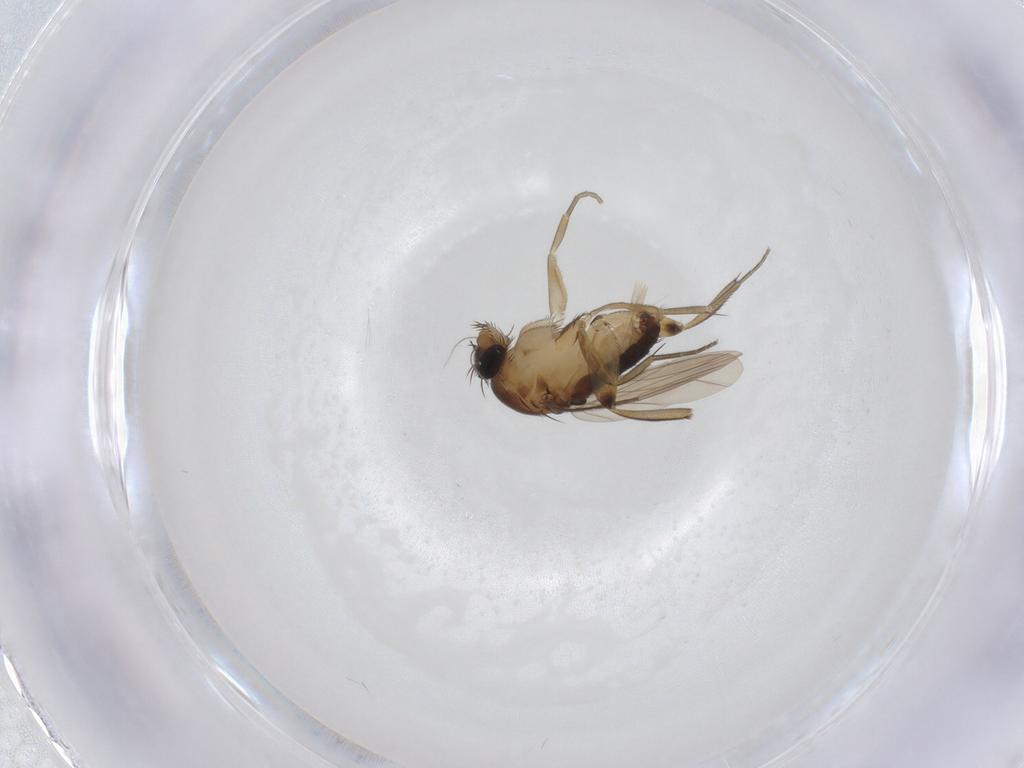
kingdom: Animalia
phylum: Arthropoda
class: Insecta
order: Diptera
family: Phoridae
